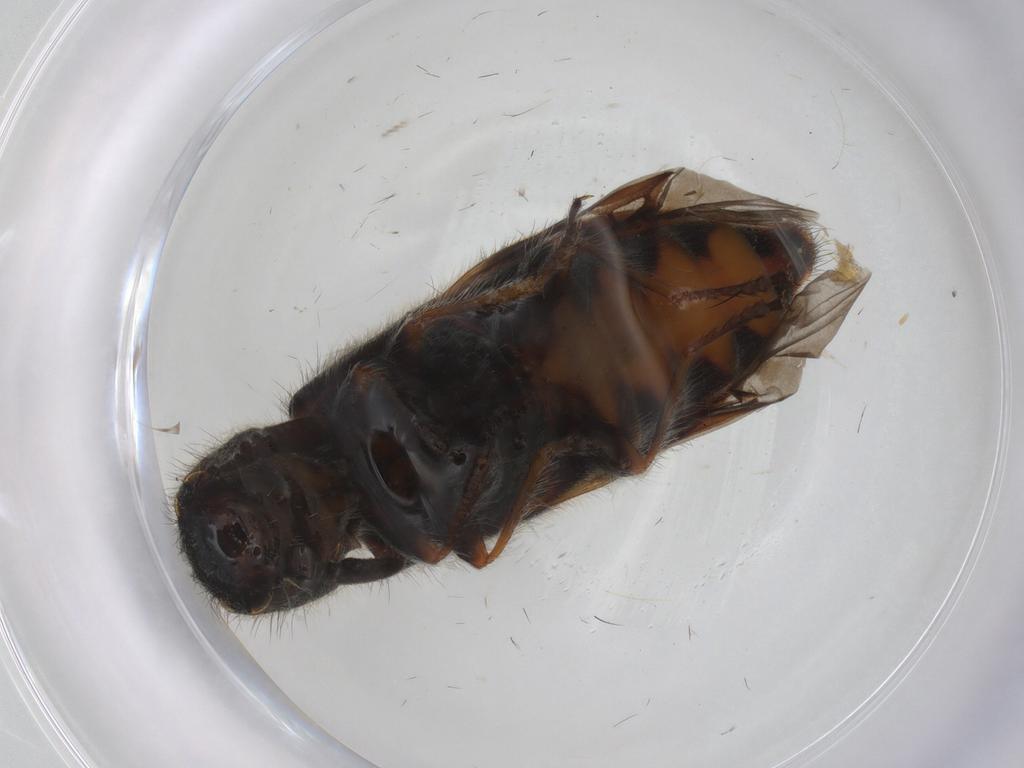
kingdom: Animalia
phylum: Arthropoda
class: Insecta
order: Coleoptera
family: Cleridae
